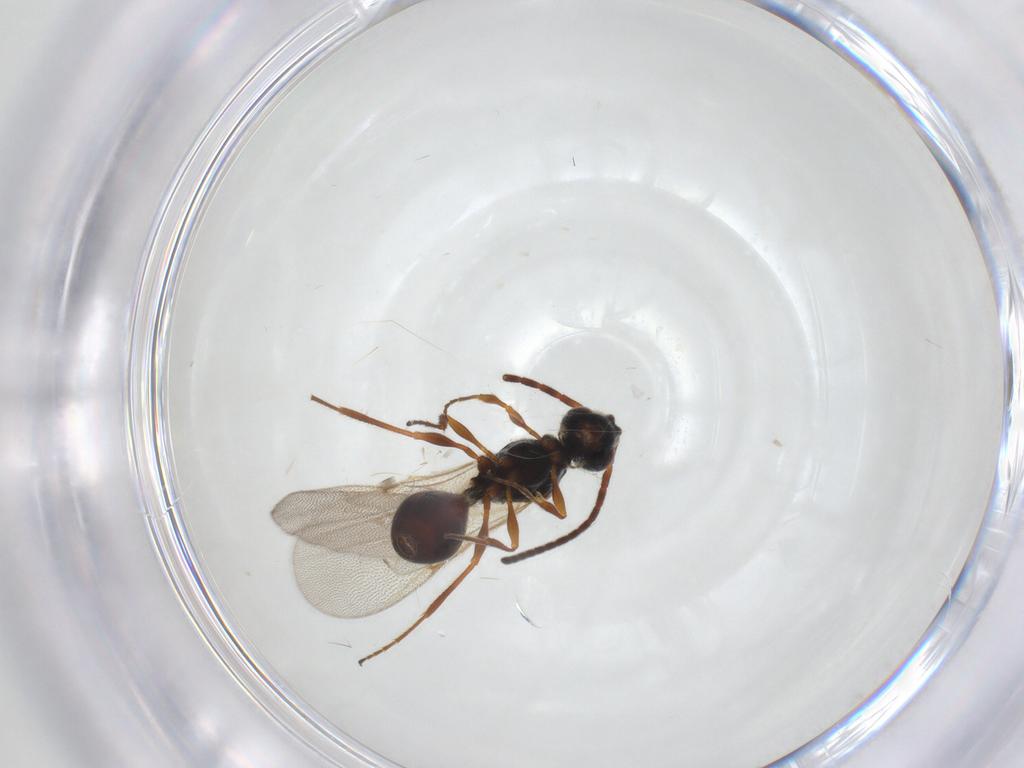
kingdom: Animalia
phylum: Arthropoda
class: Insecta
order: Hymenoptera
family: Diapriidae
